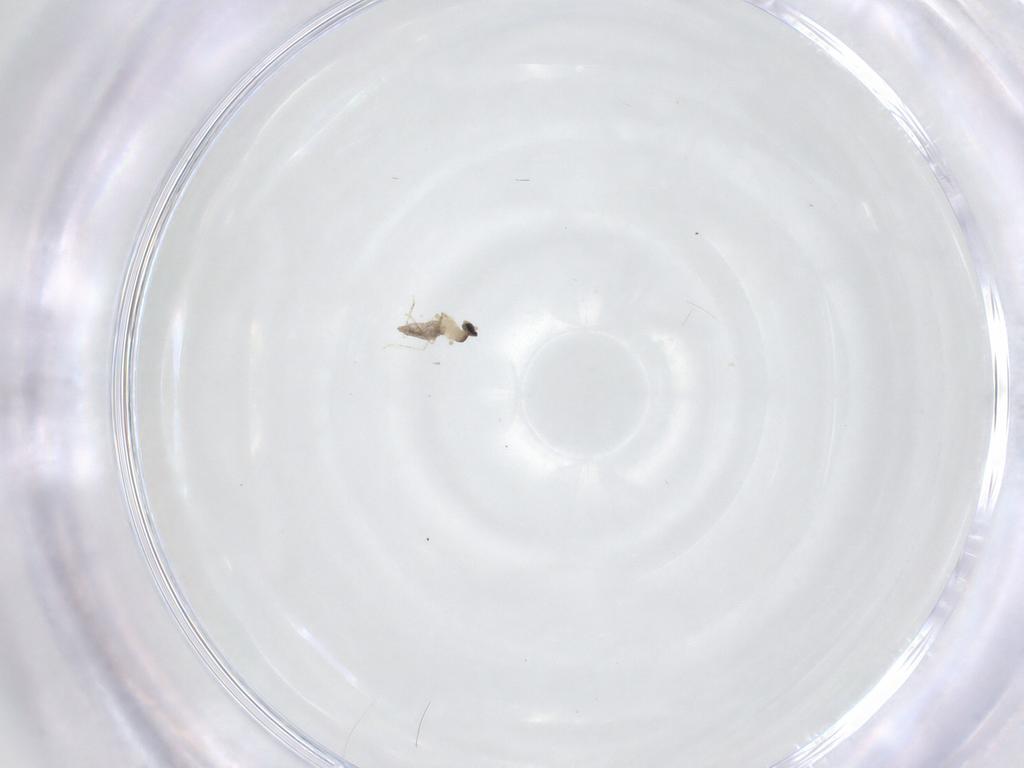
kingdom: Animalia
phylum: Arthropoda
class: Insecta
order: Diptera
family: Cecidomyiidae
